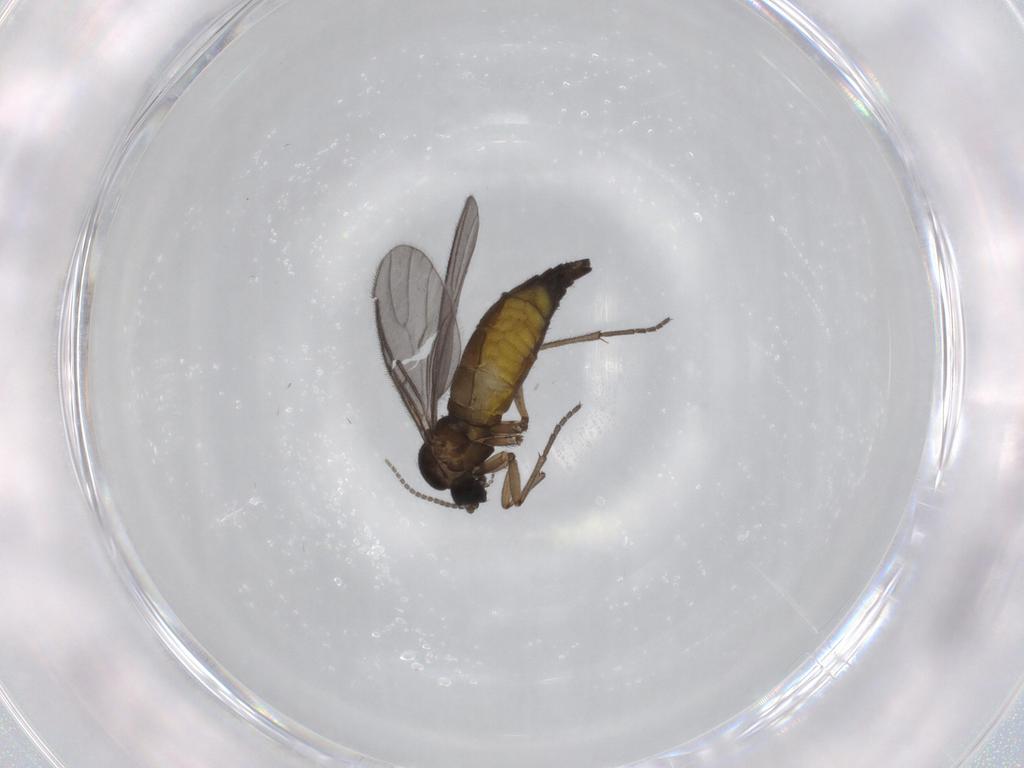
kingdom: Animalia
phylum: Arthropoda
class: Insecta
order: Diptera
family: Sciaridae
